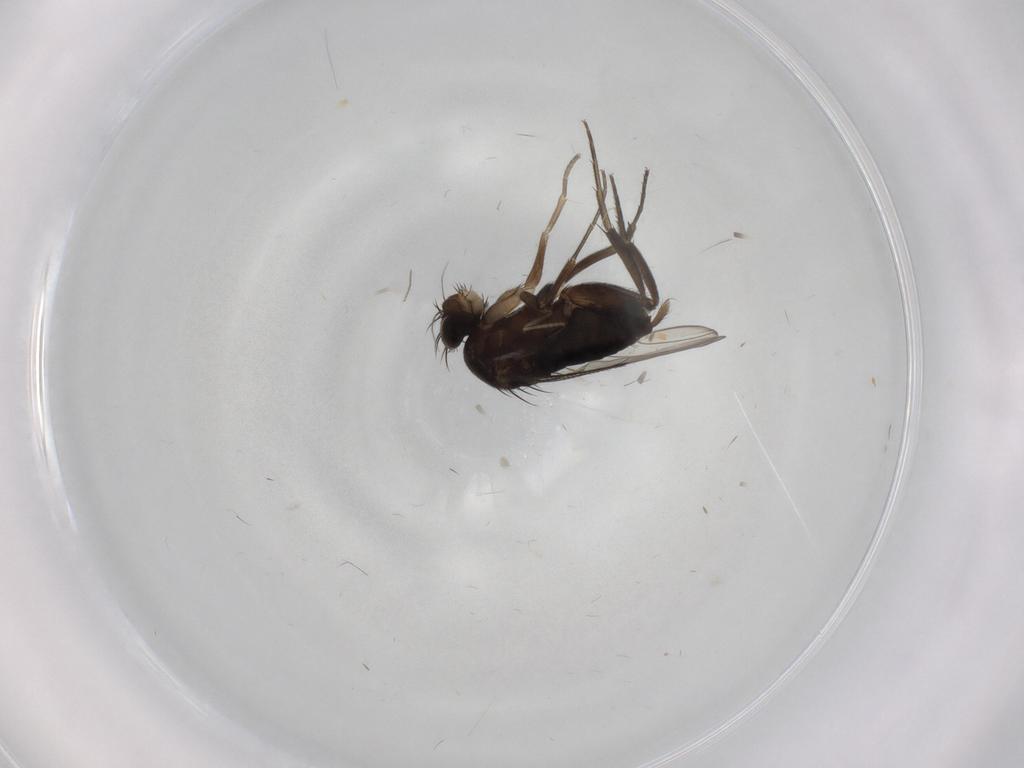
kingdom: Animalia
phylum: Arthropoda
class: Insecta
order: Diptera
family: Phoridae
